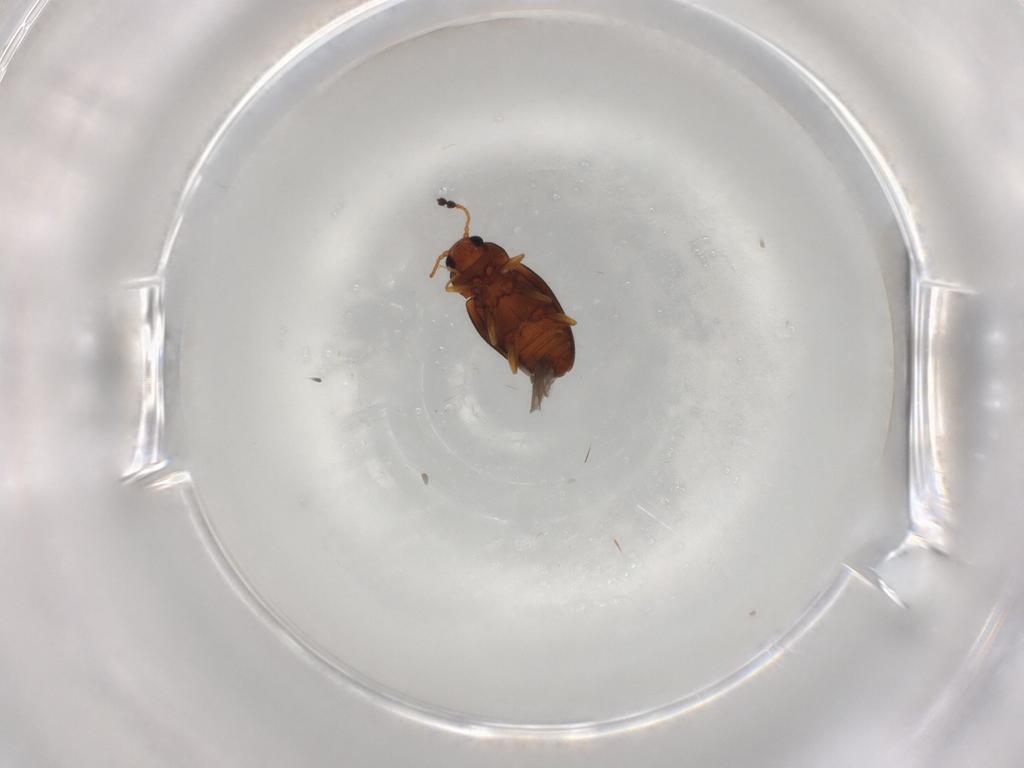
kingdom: Animalia
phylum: Arthropoda
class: Insecta
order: Coleoptera
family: Erotylidae
